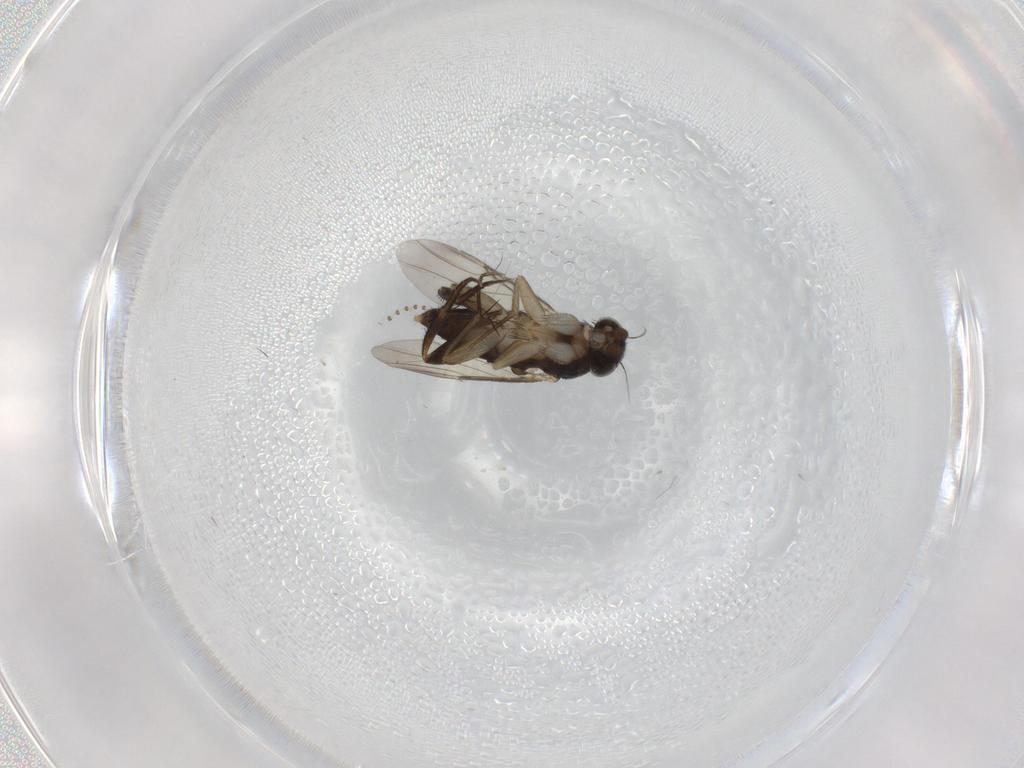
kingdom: Animalia
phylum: Arthropoda
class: Insecta
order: Diptera
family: Phoridae
